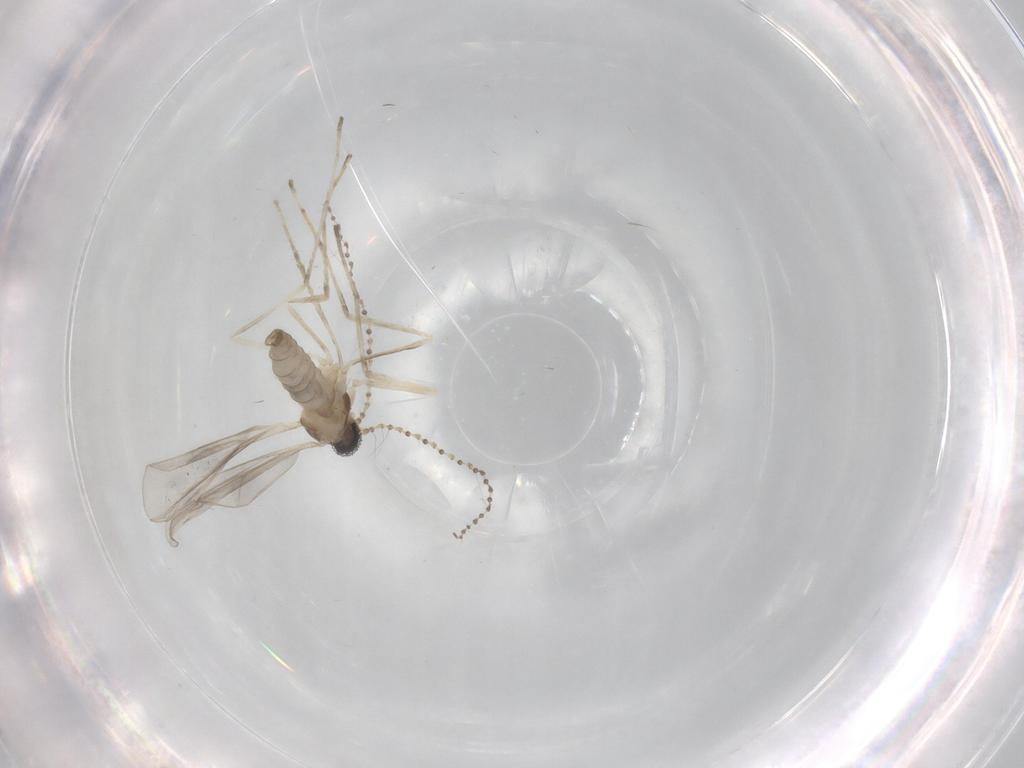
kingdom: Animalia
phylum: Arthropoda
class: Insecta
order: Diptera
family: Cecidomyiidae
